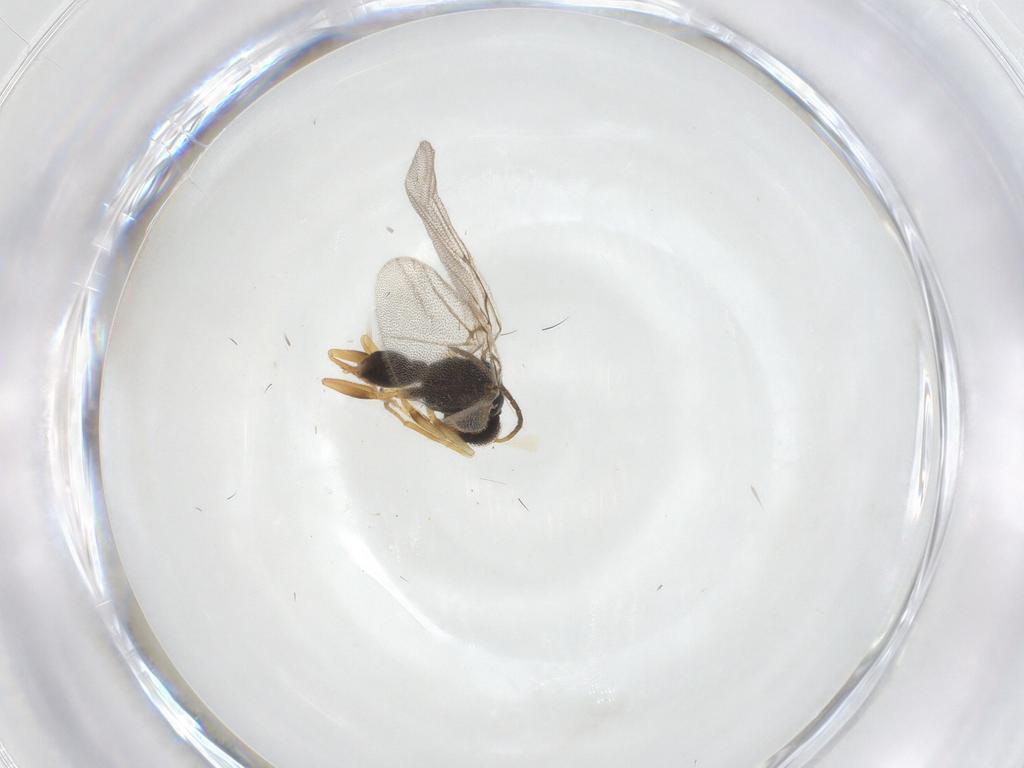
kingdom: Animalia
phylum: Arthropoda
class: Insecta
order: Hymenoptera
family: Cynipidae
